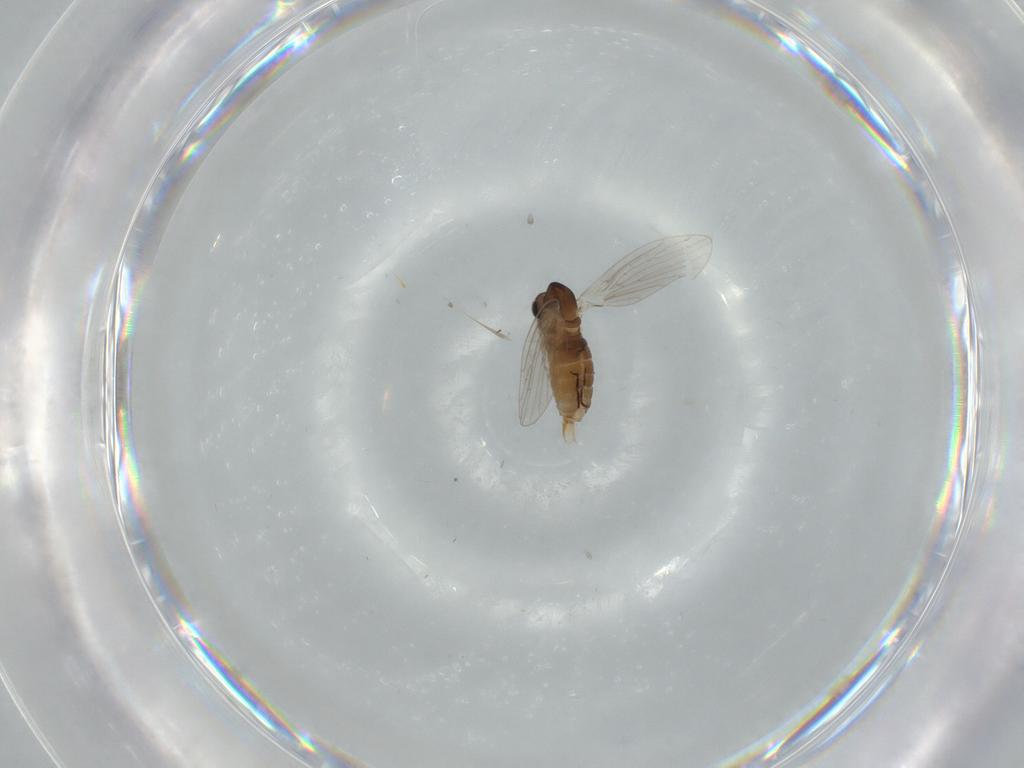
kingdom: Animalia
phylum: Arthropoda
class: Insecta
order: Diptera
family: Psychodidae
